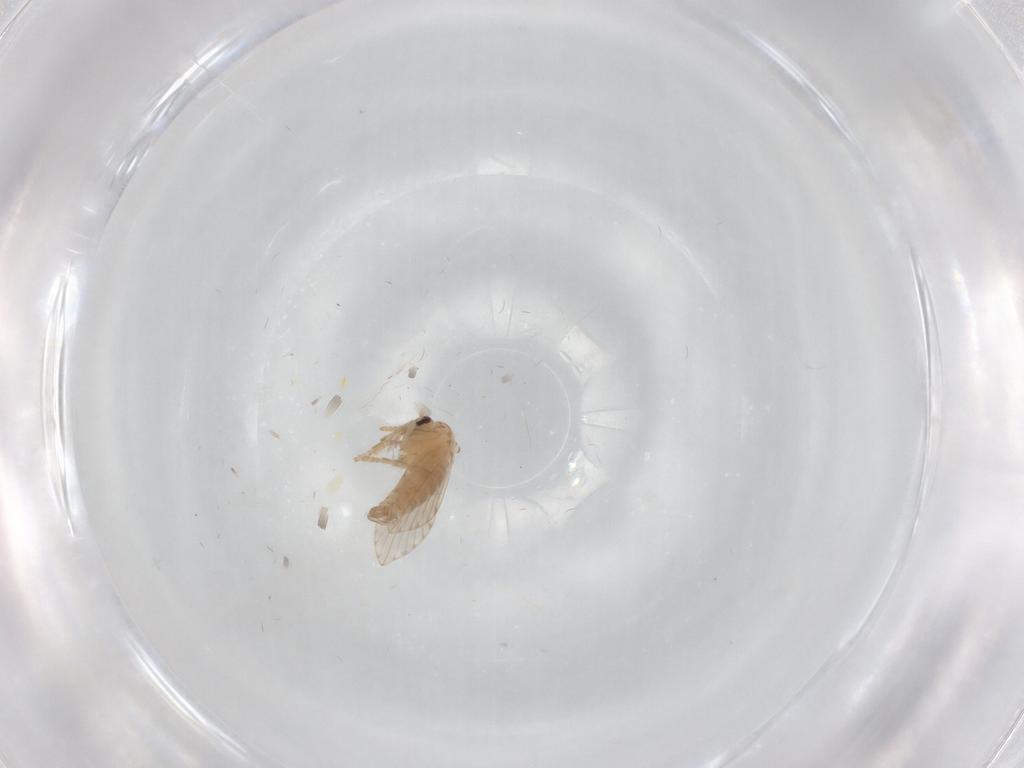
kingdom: Animalia
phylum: Arthropoda
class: Insecta
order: Diptera
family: Psychodidae
